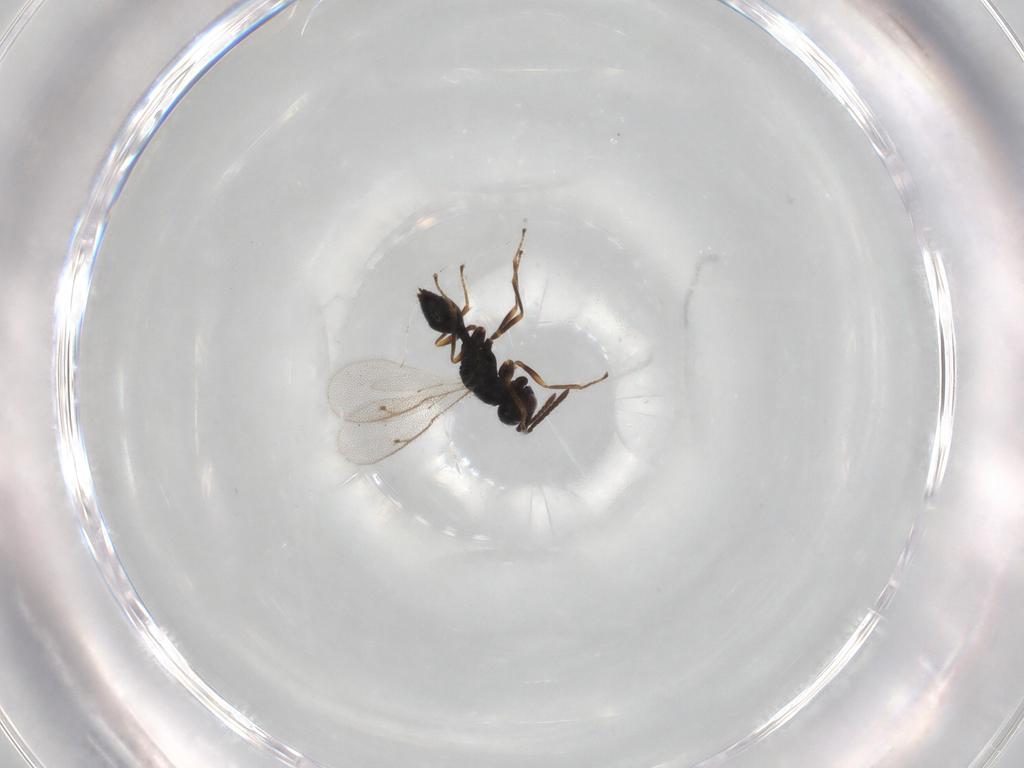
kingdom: Animalia
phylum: Arthropoda
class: Insecta
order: Hymenoptera
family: Pteromalidae
